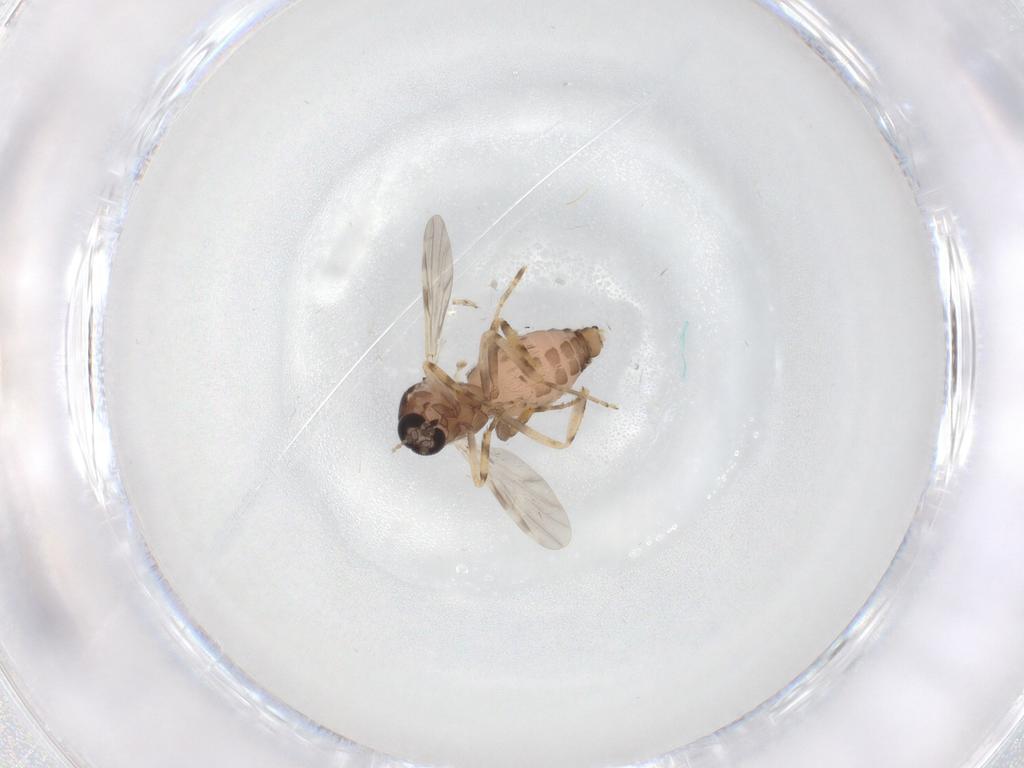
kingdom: Animalia
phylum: Arthropoda
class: Insecta
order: Diptera
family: Ceratopogonidae
